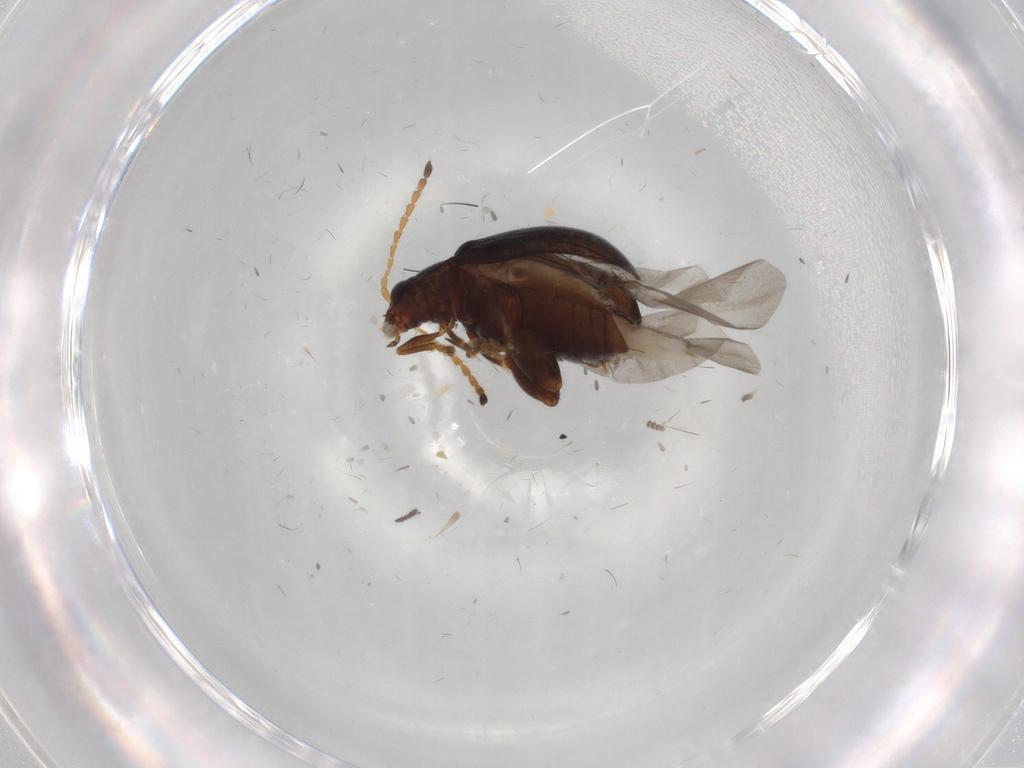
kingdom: Animalia
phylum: Arthropoda
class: Insecta
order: Coleoptera
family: Chrysomelidae
